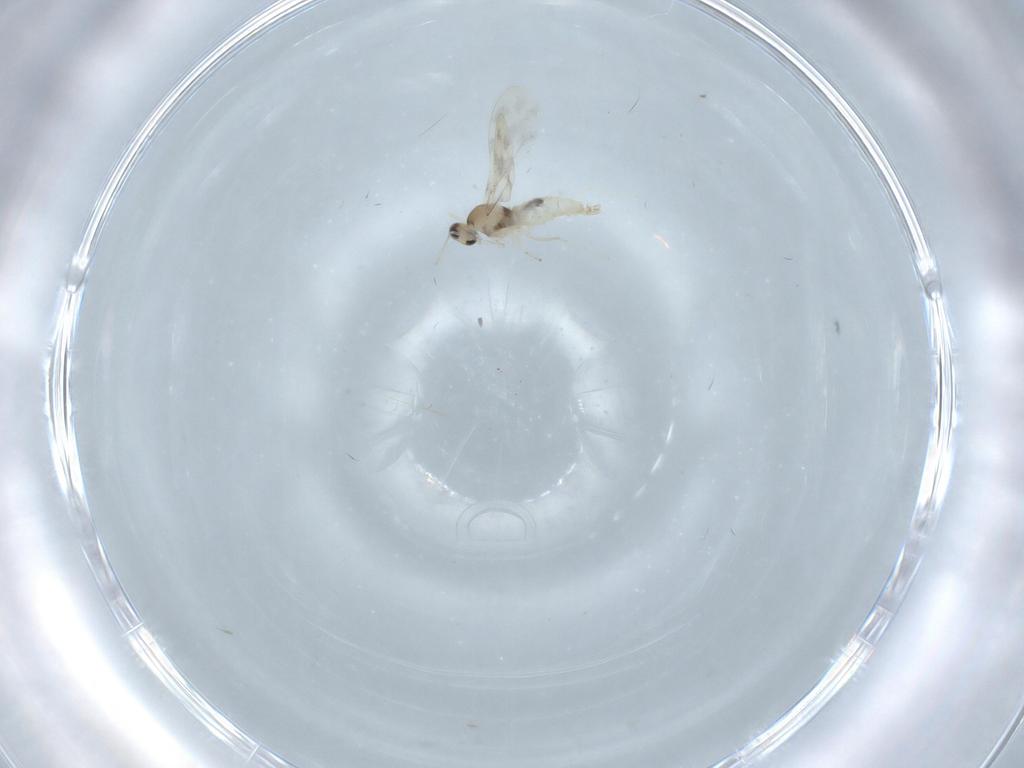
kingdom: Animalia
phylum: Arthropoda
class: Insecta
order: Diptera
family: Cecidomyiidae
